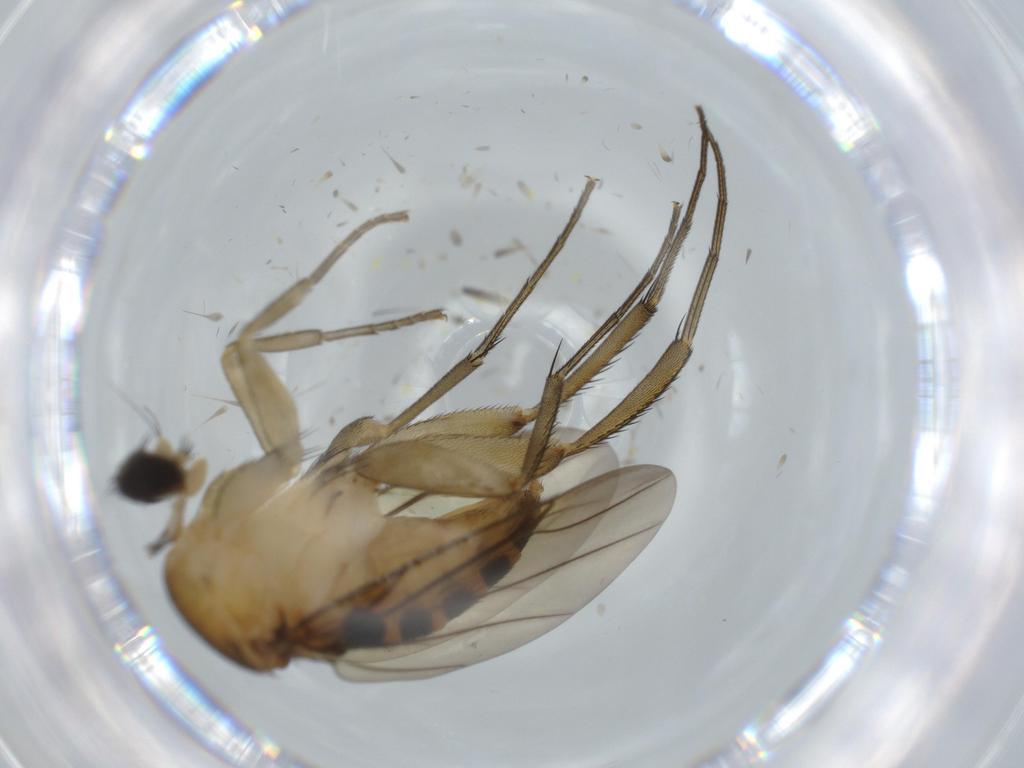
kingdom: Animalia
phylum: Arthropoda
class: Insecta
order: Diptera
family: Phoridae
